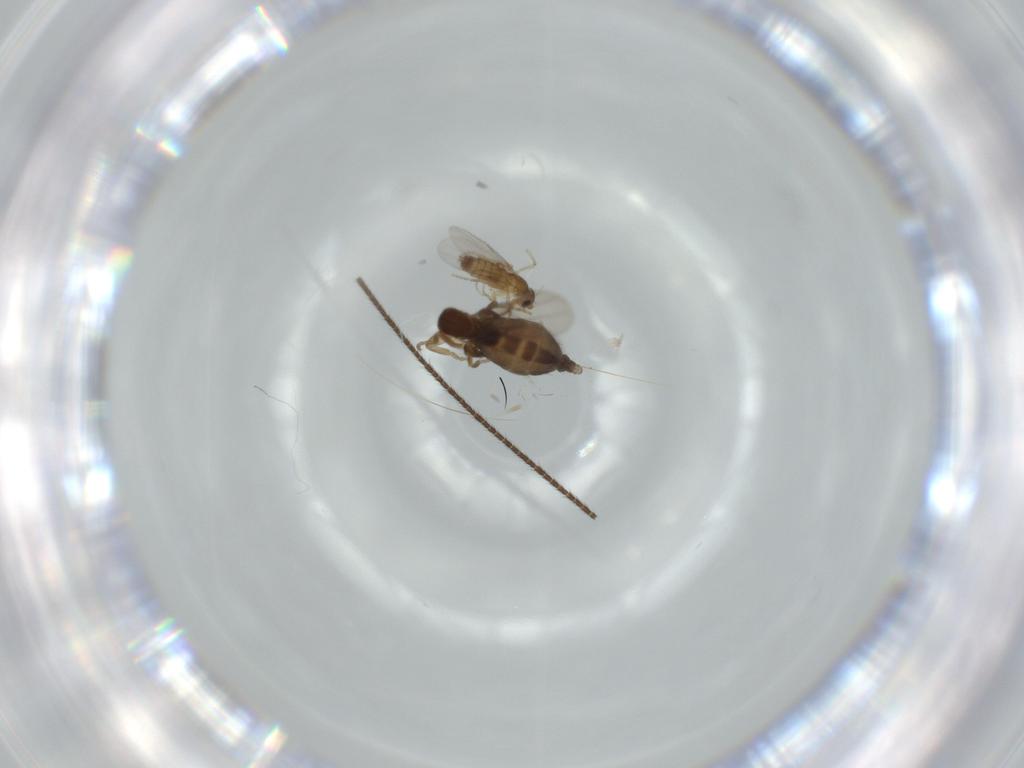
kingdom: Animalia
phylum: Arthropoda
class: Insecta
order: Diptera
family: Phoridae
